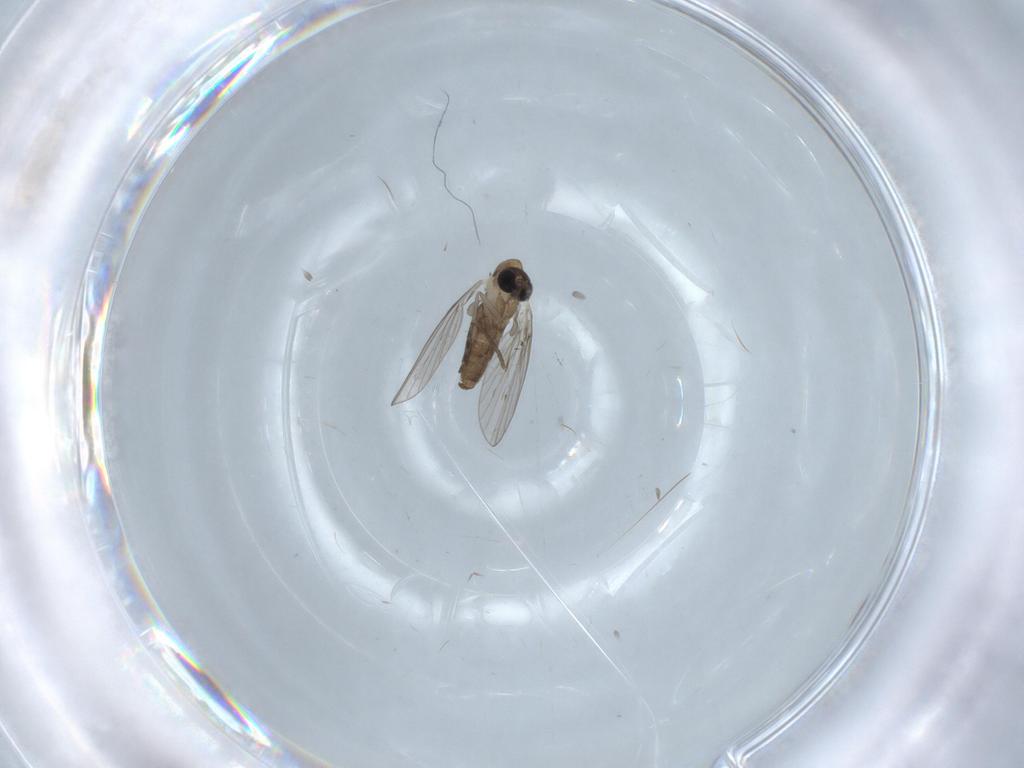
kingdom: Animalia
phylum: Arthropoda
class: Insecta
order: Diptera
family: Psychodidae
